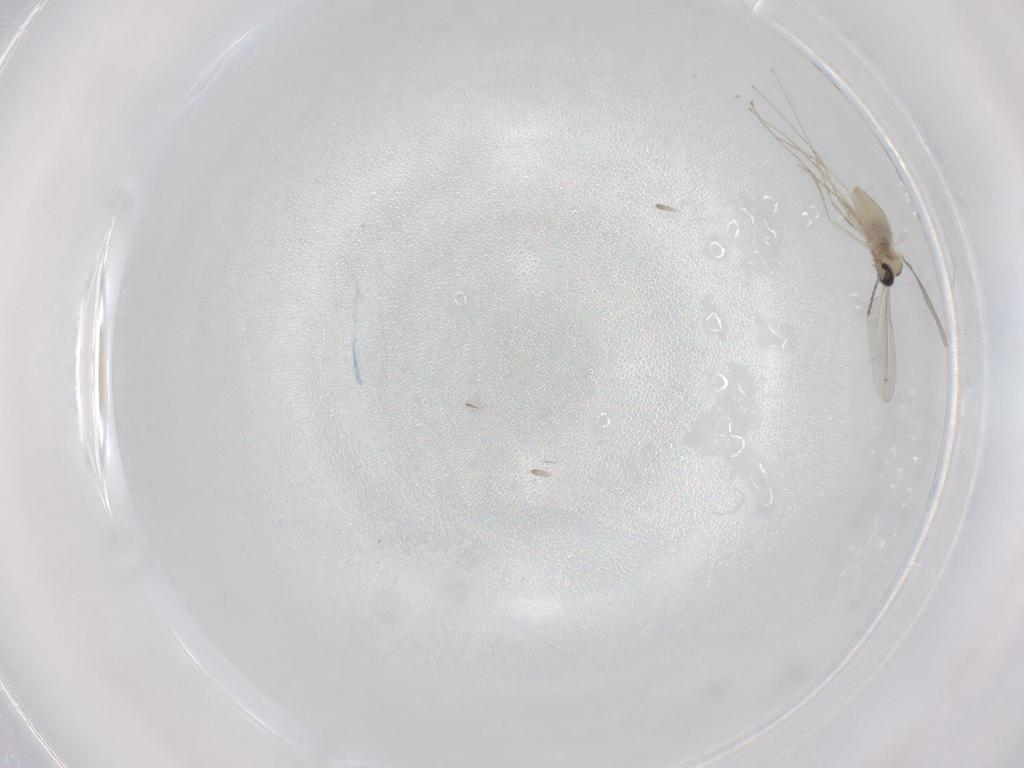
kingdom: Animalia
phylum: Arthropoda
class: Insecta
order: Diptera
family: Cecidomyiidae
